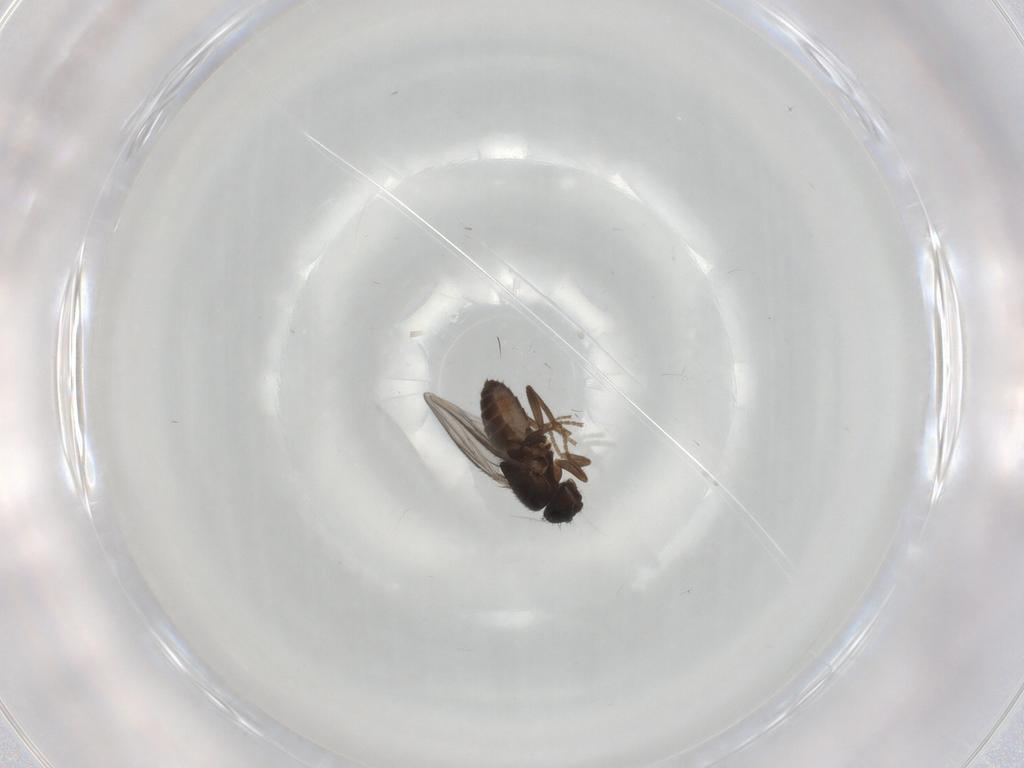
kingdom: Animalia
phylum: Arthropoda
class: Insecta
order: Diptera
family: Sphaeroceridae
